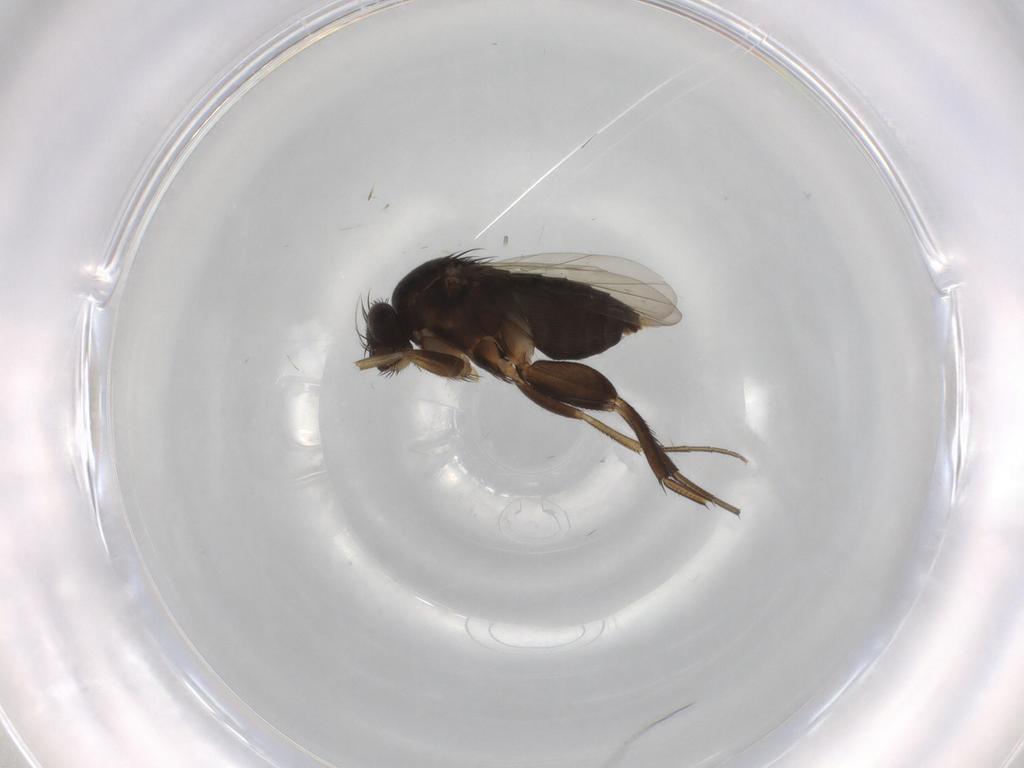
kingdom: Animalia
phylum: Arthropoda
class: Insecta
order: Diptera
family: Phoridae
